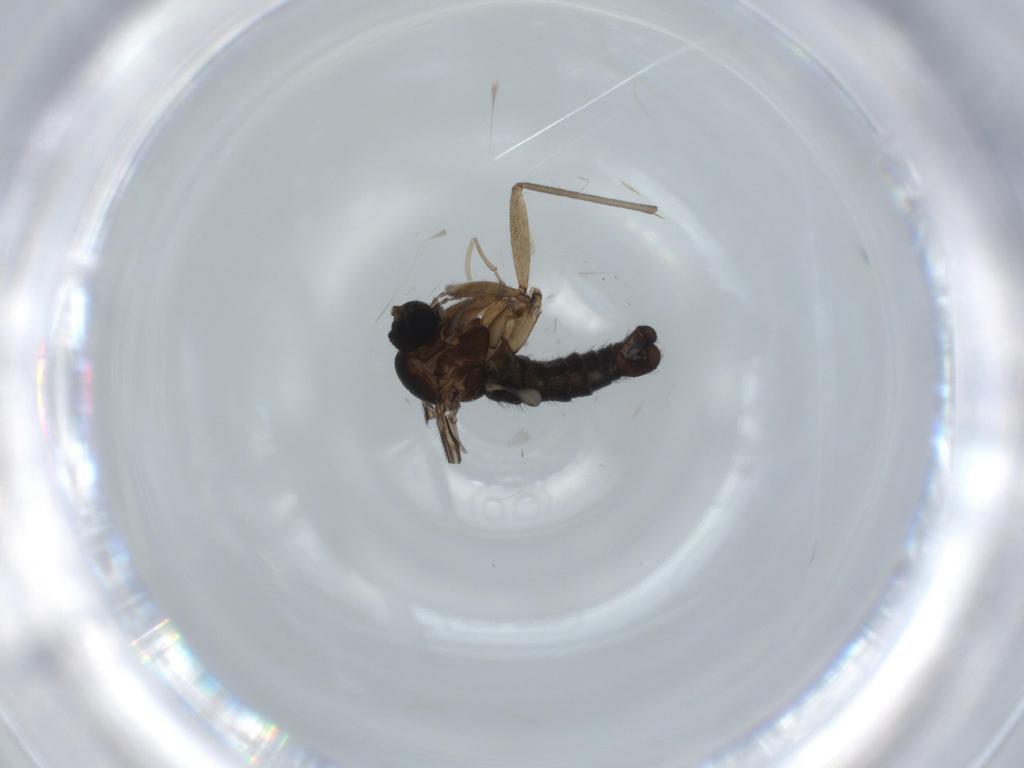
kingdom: Animalia
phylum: Arthropoda
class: Insecta
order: Diptera
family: Sciaridae
